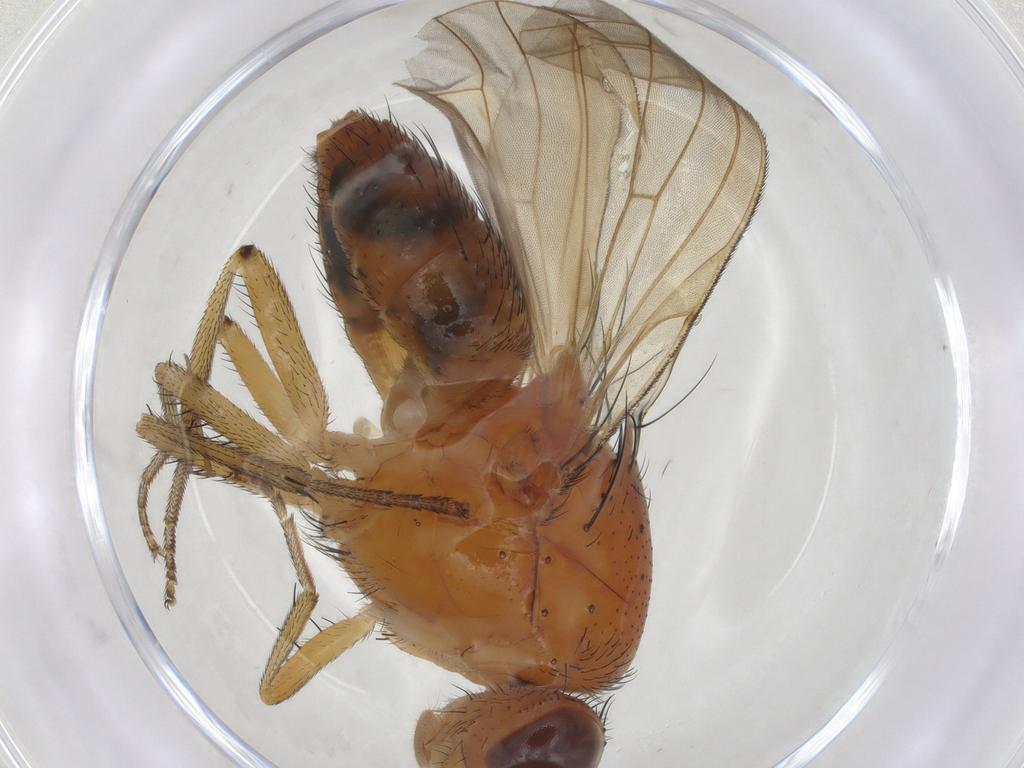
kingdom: Animalia
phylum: Arthropoda
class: Insecta
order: Diptera
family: Cecidomyiidae
